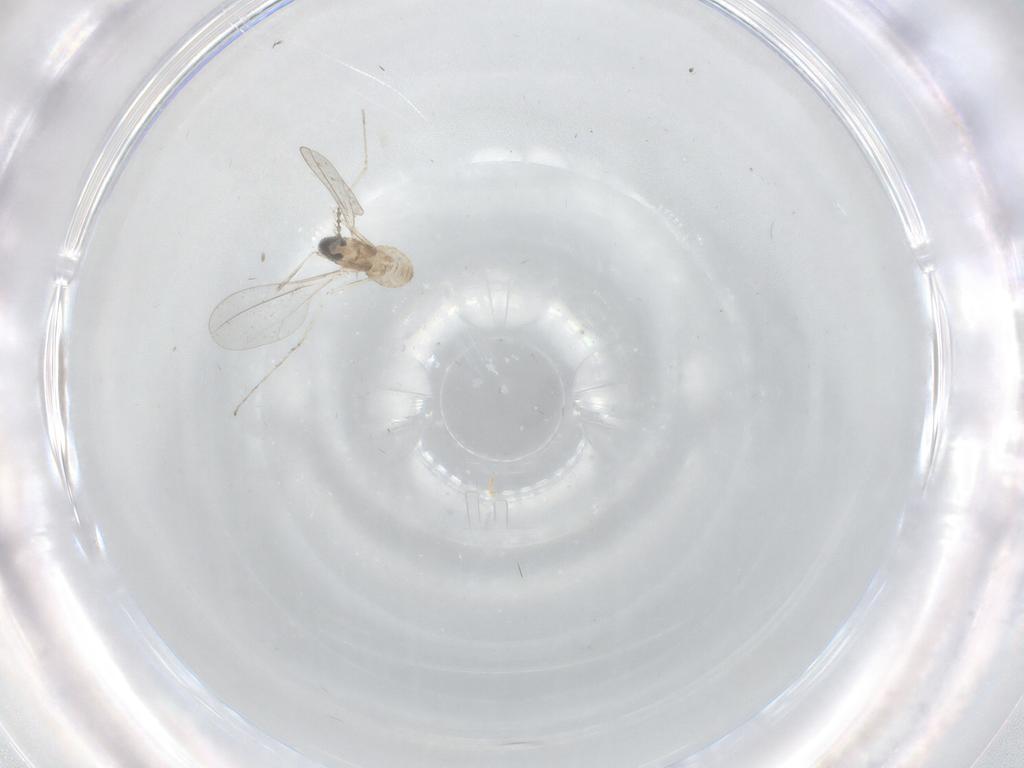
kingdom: Animalia
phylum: Arthropoda
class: Insecta
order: Diptera
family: Cecidomyiidae
